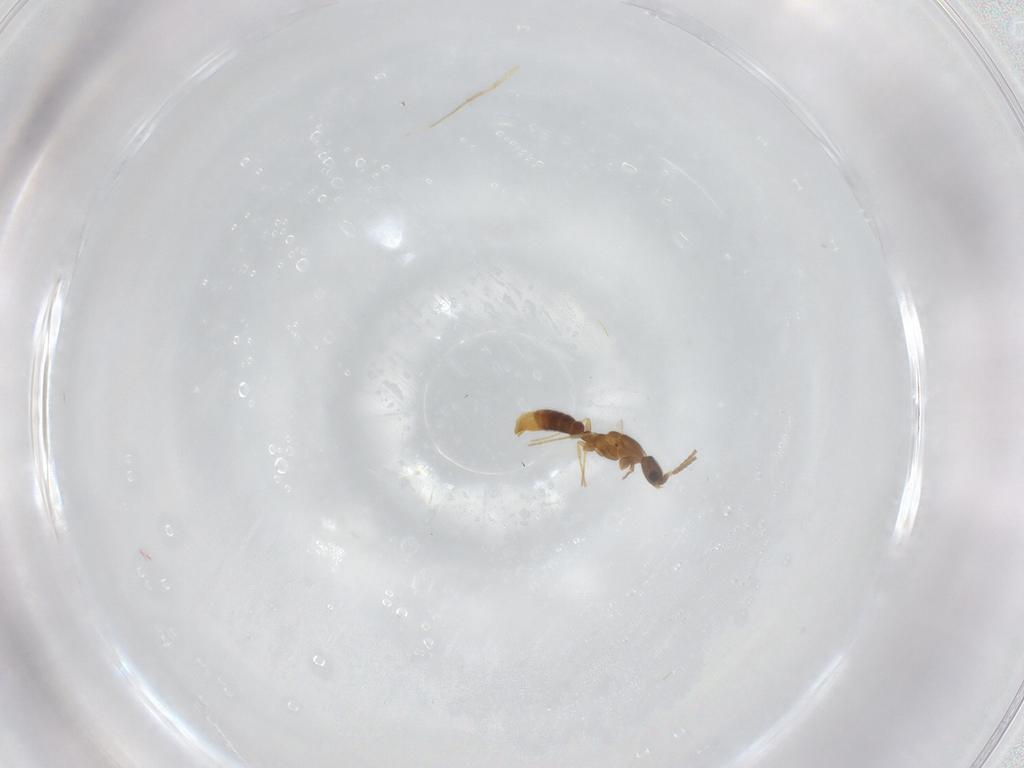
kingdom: Animalia
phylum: Arthropoda
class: Insecta
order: Hymenoptera
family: Formicidae
